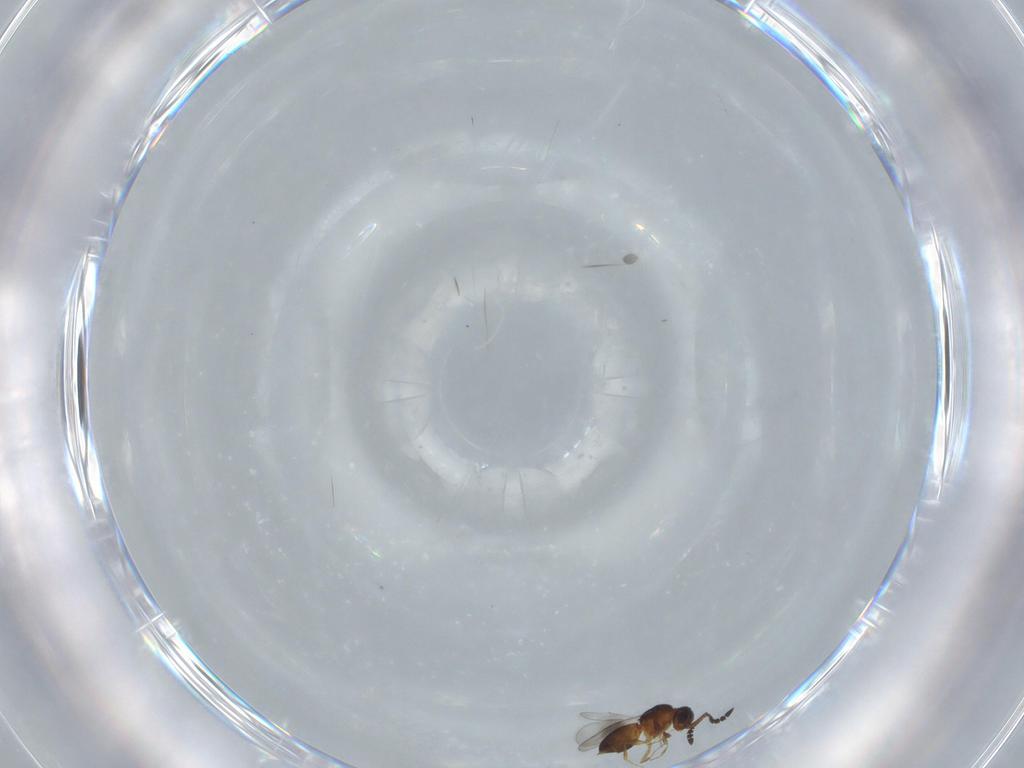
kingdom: Animalia
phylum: Arthropoda
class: Insecta
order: Hymenoptera
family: Ceraphronidae
